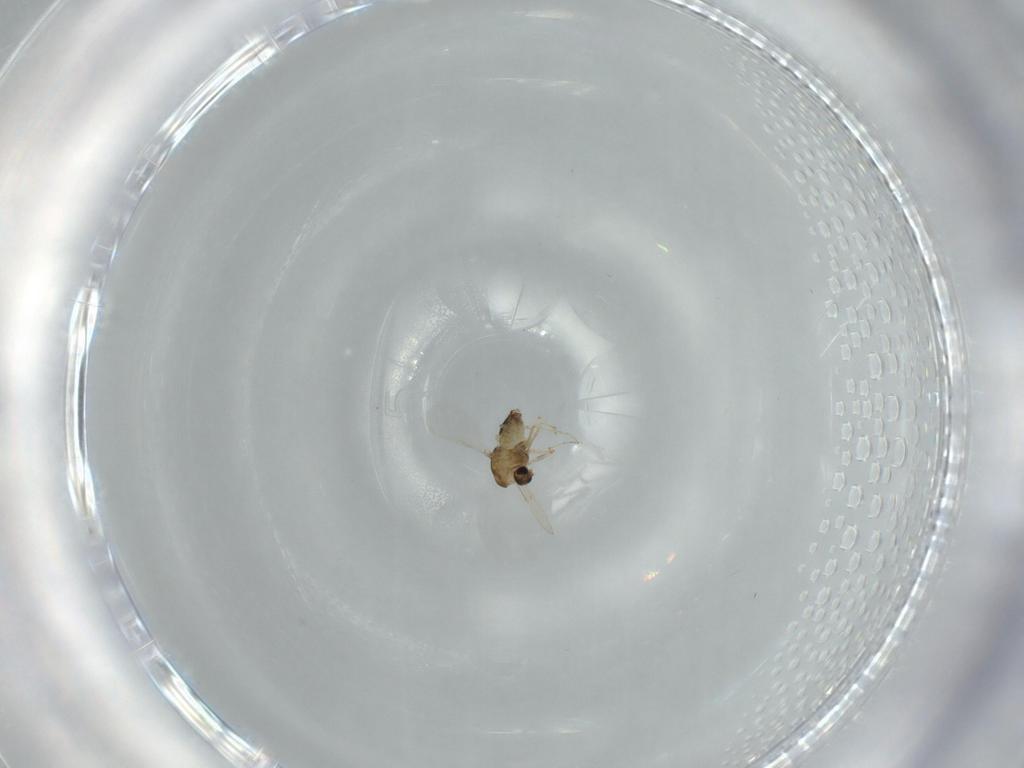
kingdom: Animalia
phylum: Arthropoda
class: Insecta
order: Diptera
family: Chironomidae
